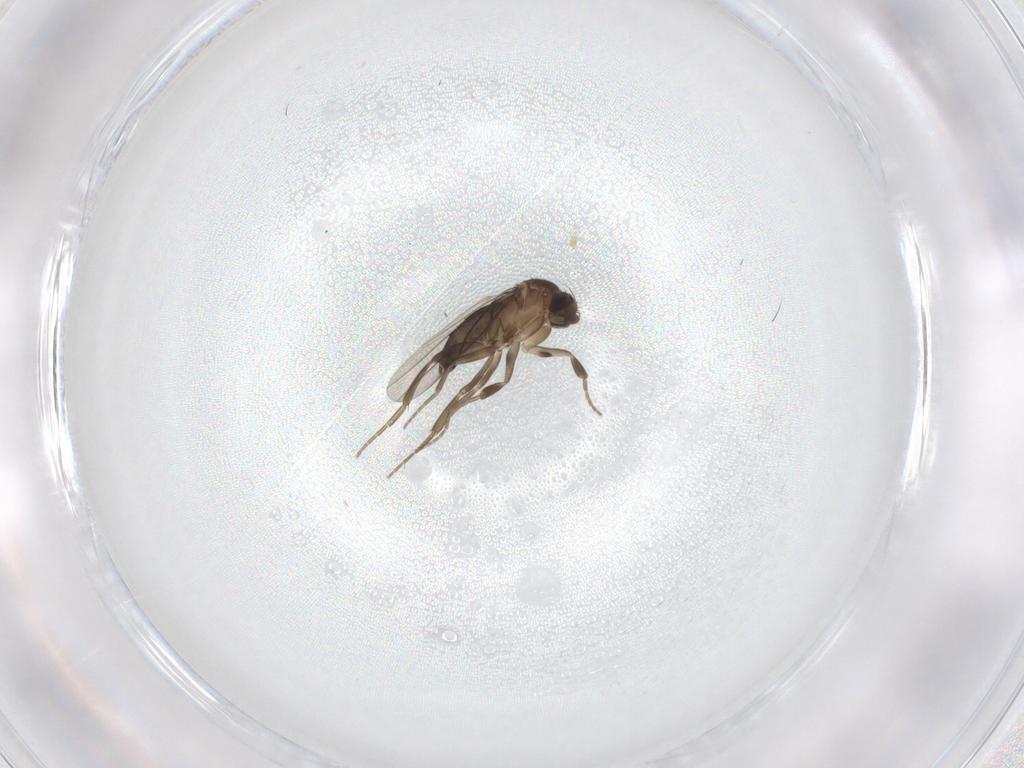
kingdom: Animalia
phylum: Arthropoda
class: Insecta
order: Diptera
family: Phoridae
